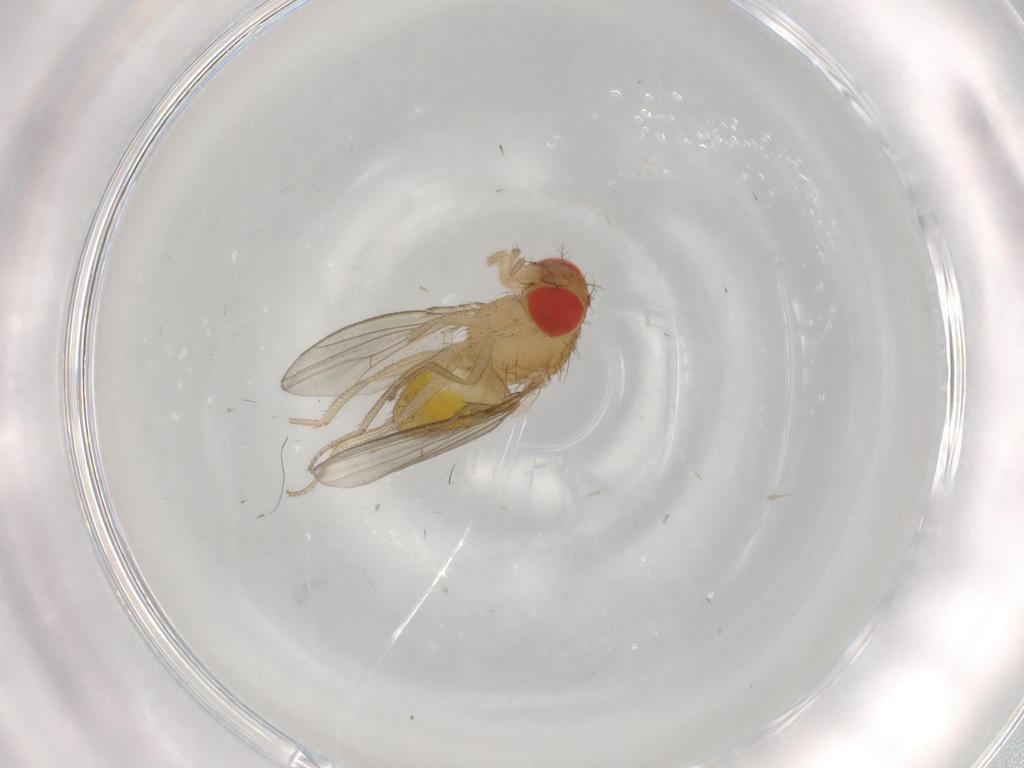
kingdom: Animalia
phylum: Arthropoda
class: Insecta
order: Diptera
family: Drosophilidae
